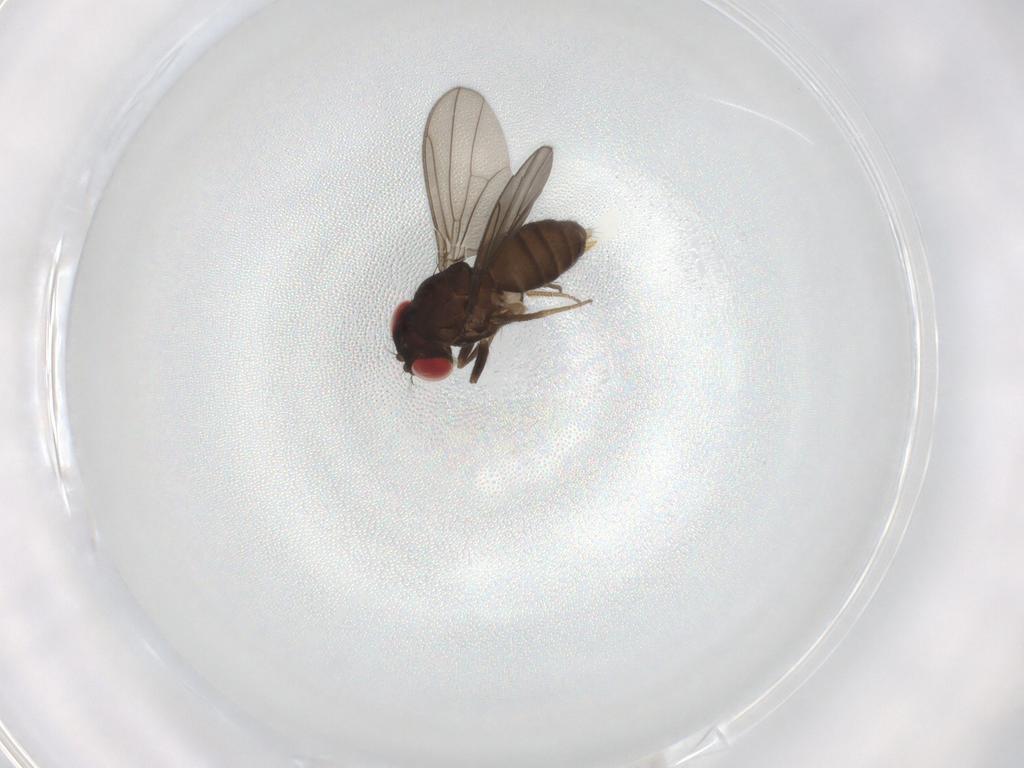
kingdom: Animalia
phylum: Arthropoda
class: Insecta
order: Diptera
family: Drosophilidae
